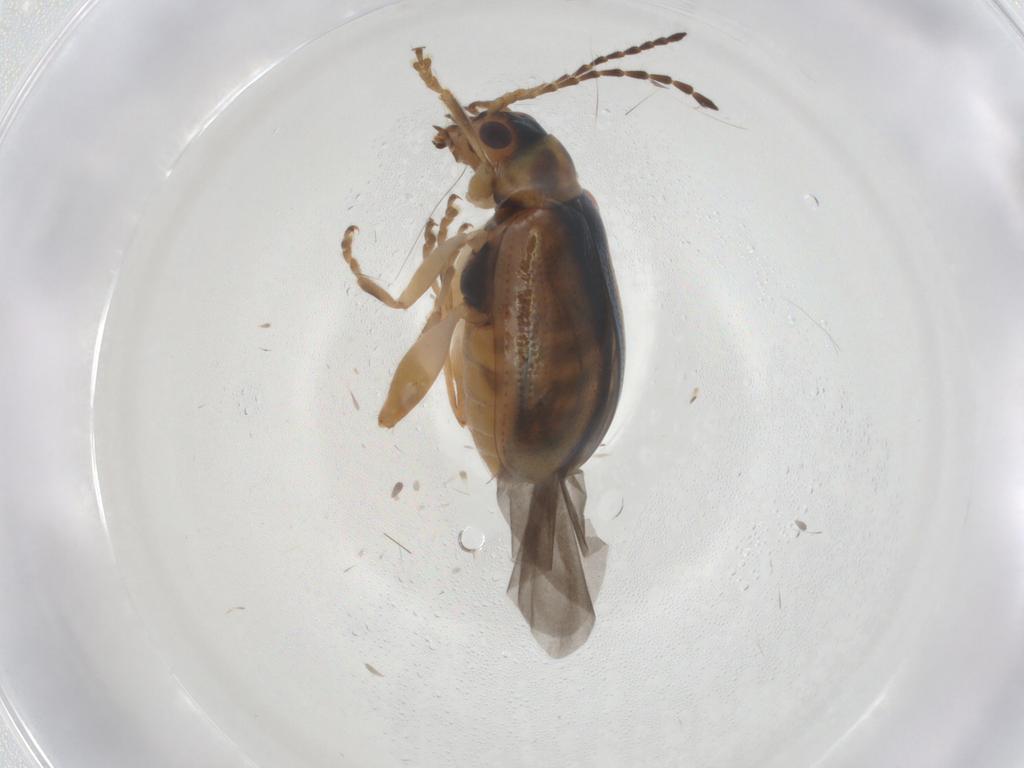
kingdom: Animalia
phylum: Arthropoda
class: Insecta
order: Coleoptera
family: Chrysomelidae
